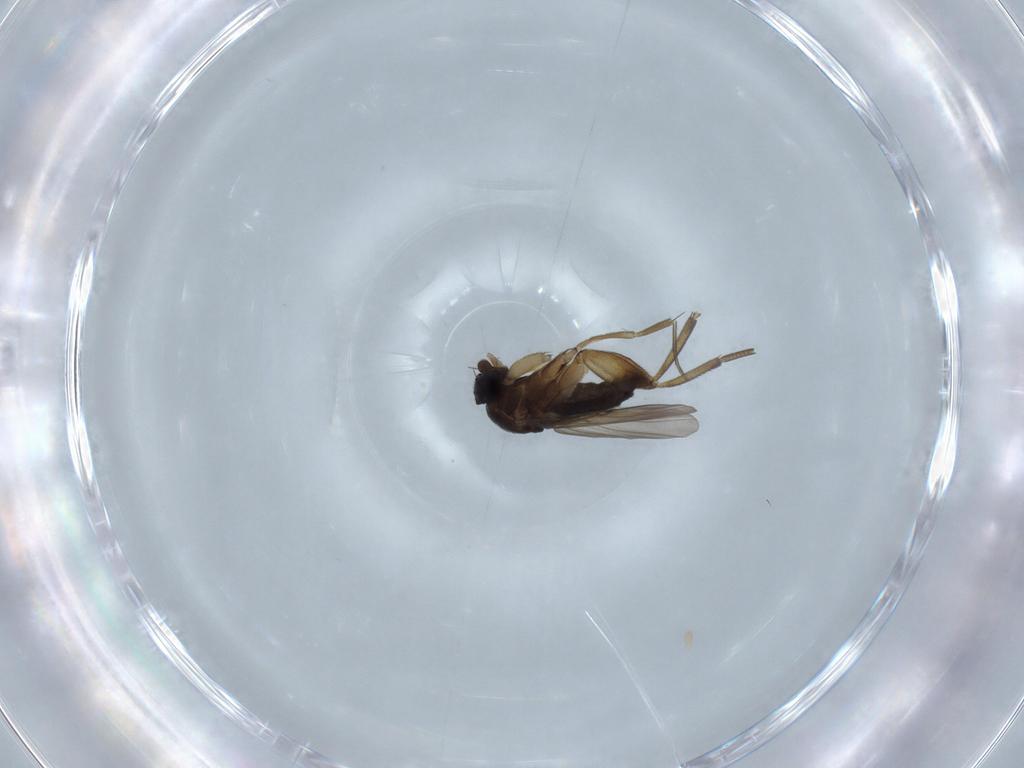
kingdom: Animalia
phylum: Arthropoda
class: Insecta
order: Diptera
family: Phoridae
